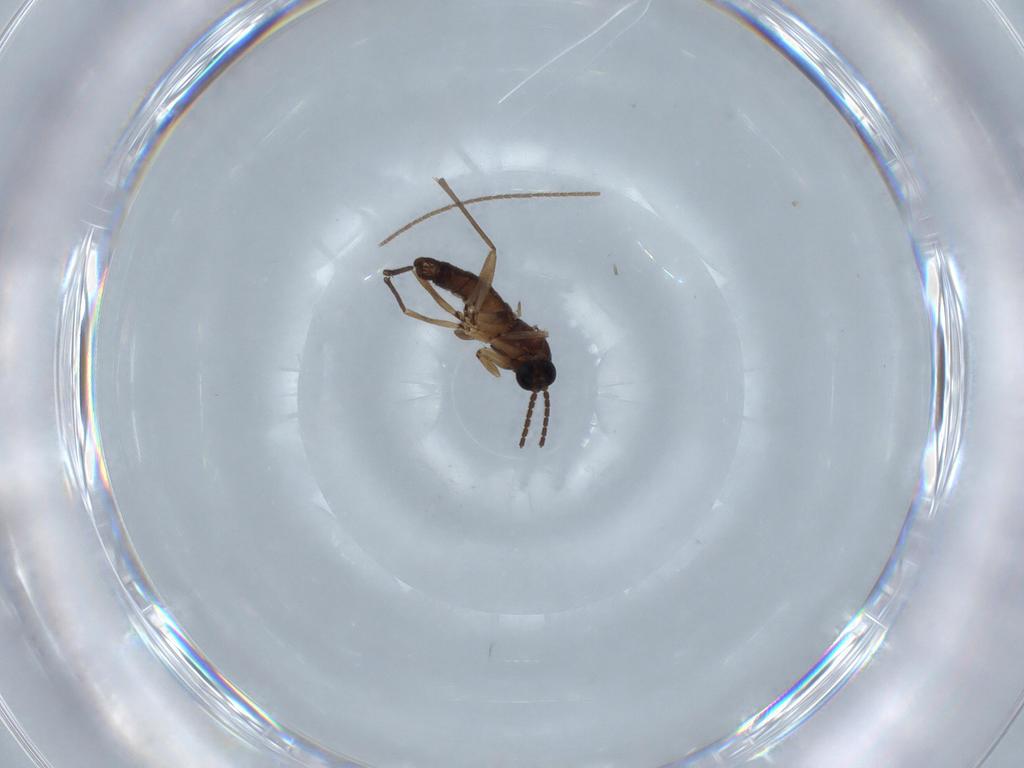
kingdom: Animalia
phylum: Arthropoda
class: Insecta
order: Diptera
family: Sciaridae
